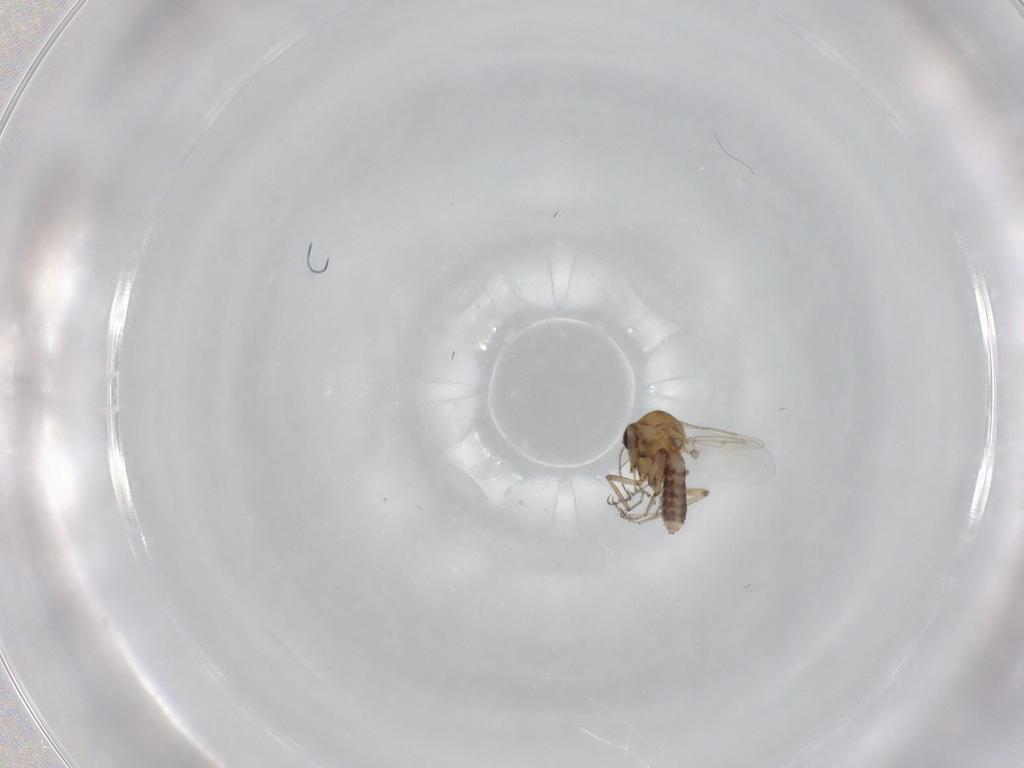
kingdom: Animalia
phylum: Arthropoda
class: Insecta
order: Diptera
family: Ceratopogonidae
